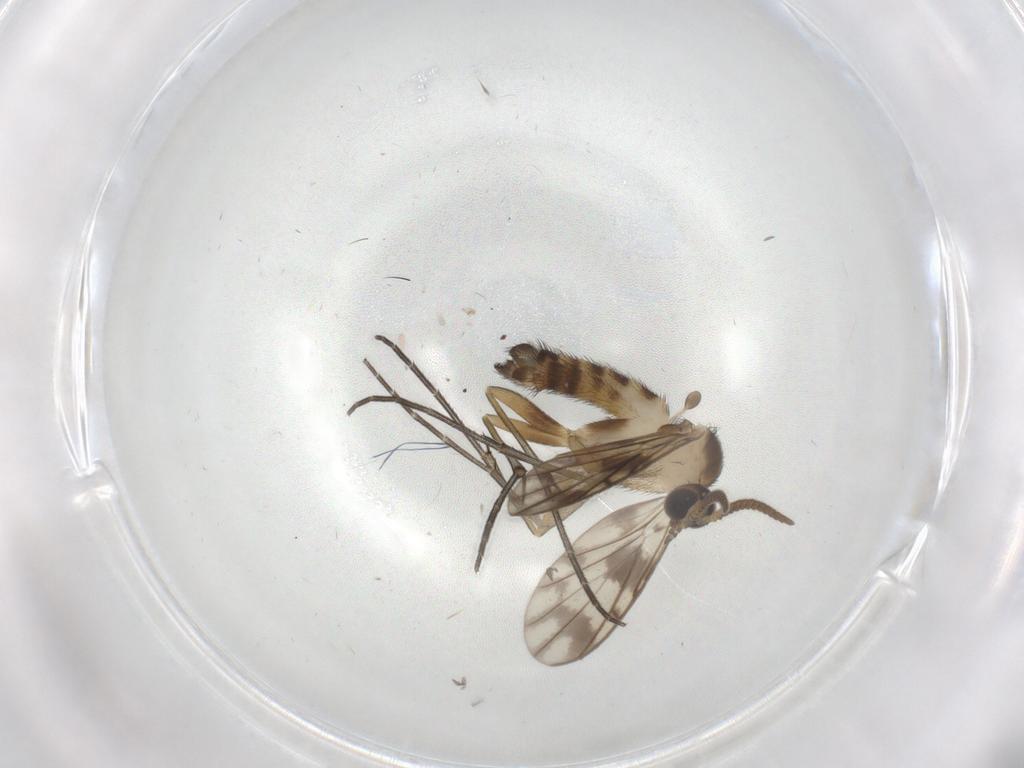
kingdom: Animalia
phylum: Arthropoda
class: Insecta
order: Diptera
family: Keroplatidae
